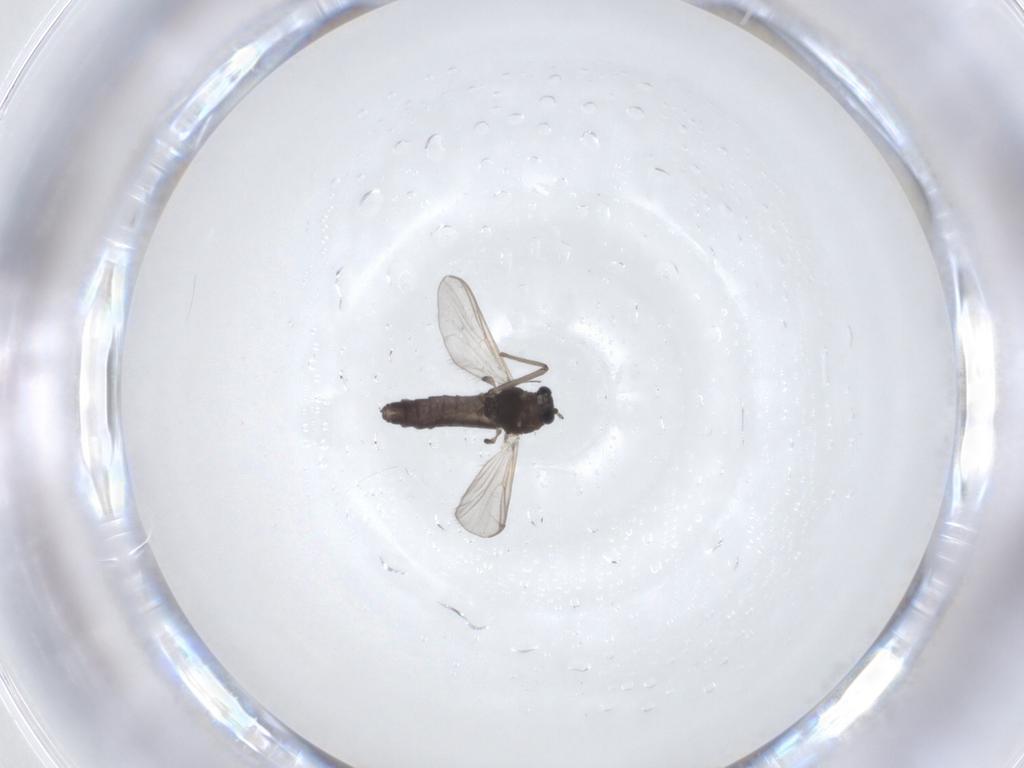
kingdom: Animalia
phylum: Arthropoda
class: Insecta
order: Diptera
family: Chironomidae
